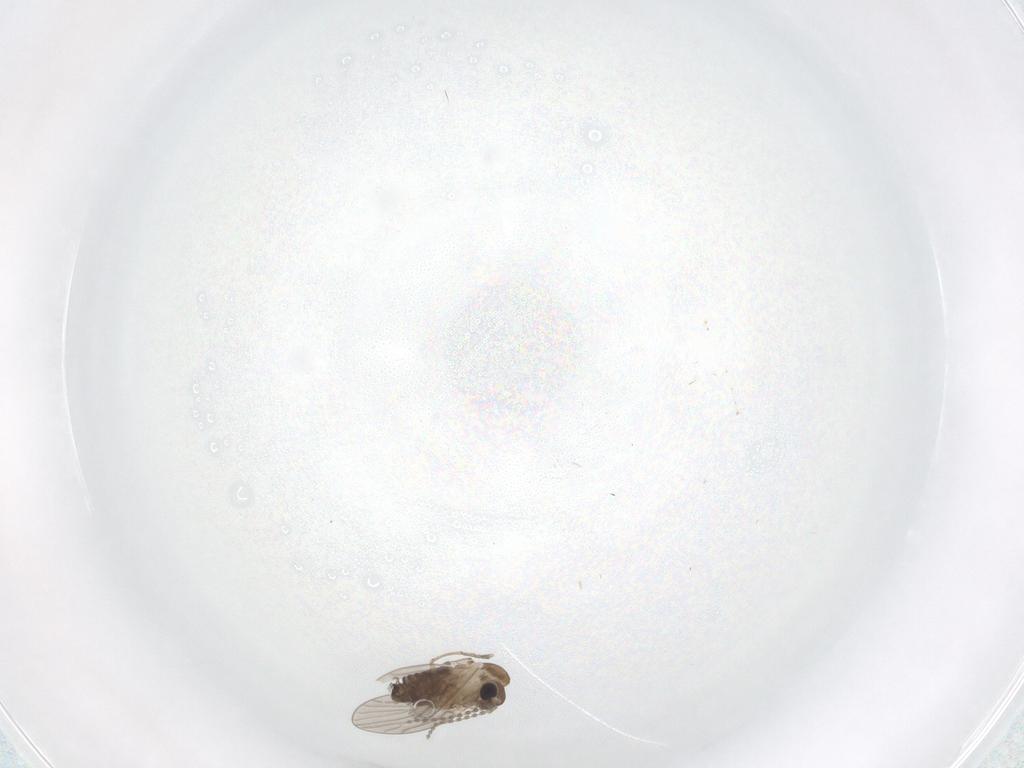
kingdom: Animalia
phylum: Arthropoda
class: Insecta
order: Diptera
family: Cecidomyiidae
